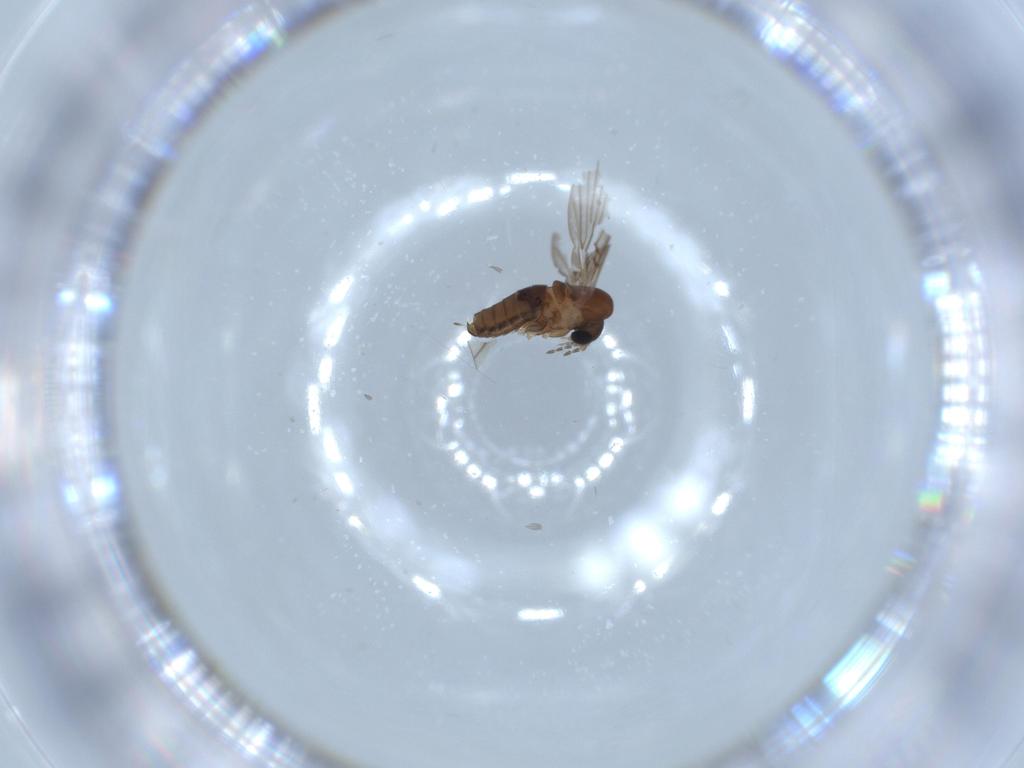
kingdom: Animalia
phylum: Arthropoda
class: Insecta
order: Diptera
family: Psychodidae
